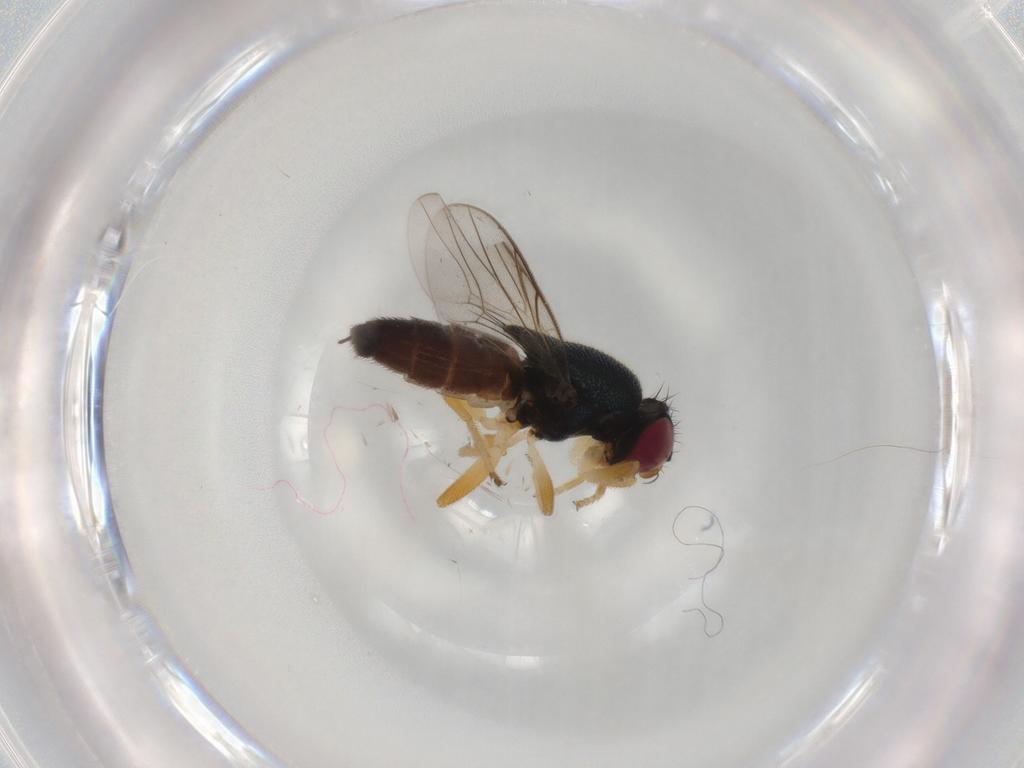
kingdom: Animalia
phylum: Arthropoda
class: Insecta
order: Diptera
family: Chloropidae
